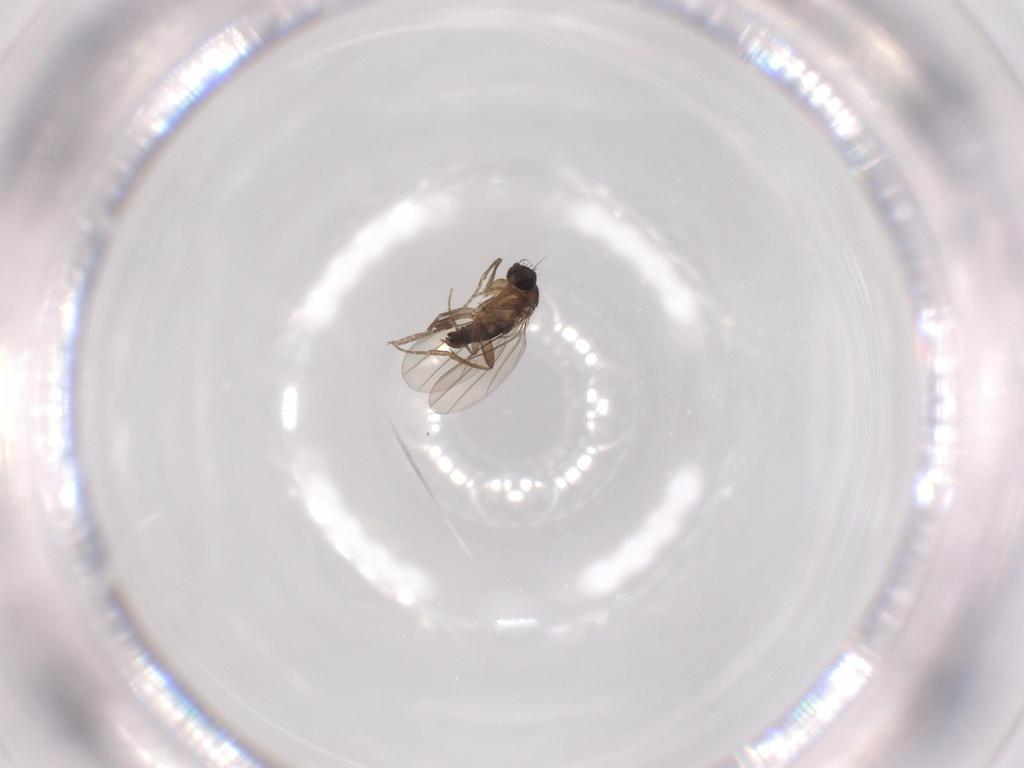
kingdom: Animalia
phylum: Arthropoda
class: Insecta
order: Diptera
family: Phoridae
